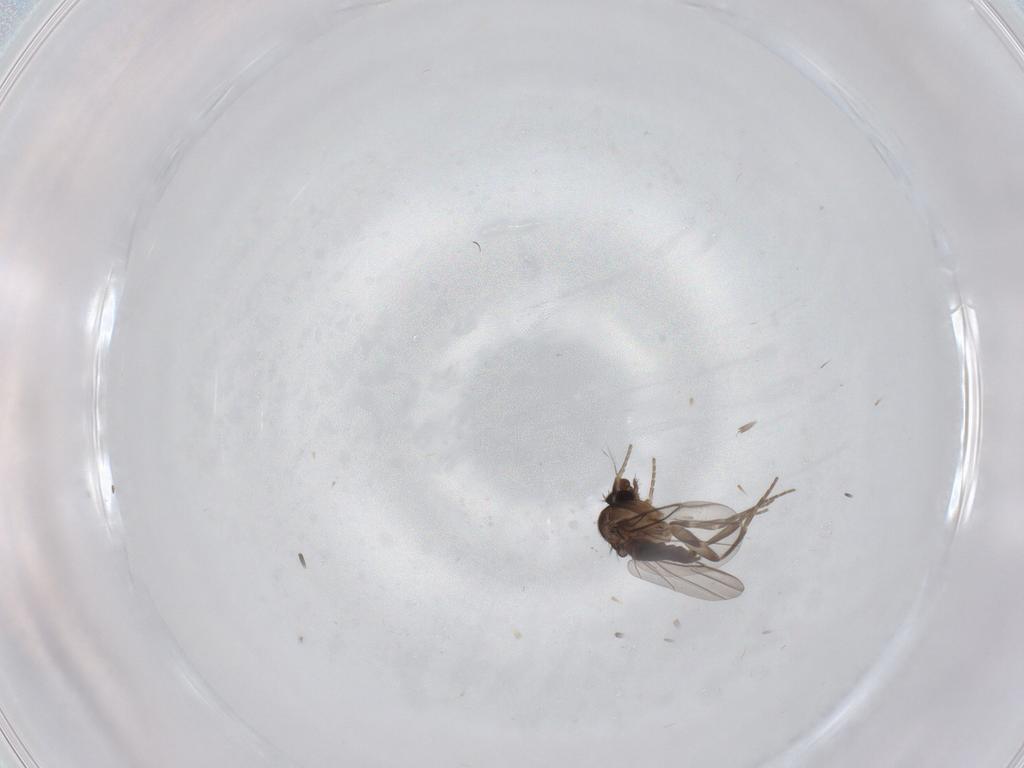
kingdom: Animalia
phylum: Arthropoda
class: Insecta
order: Diptera
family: Phoridae
